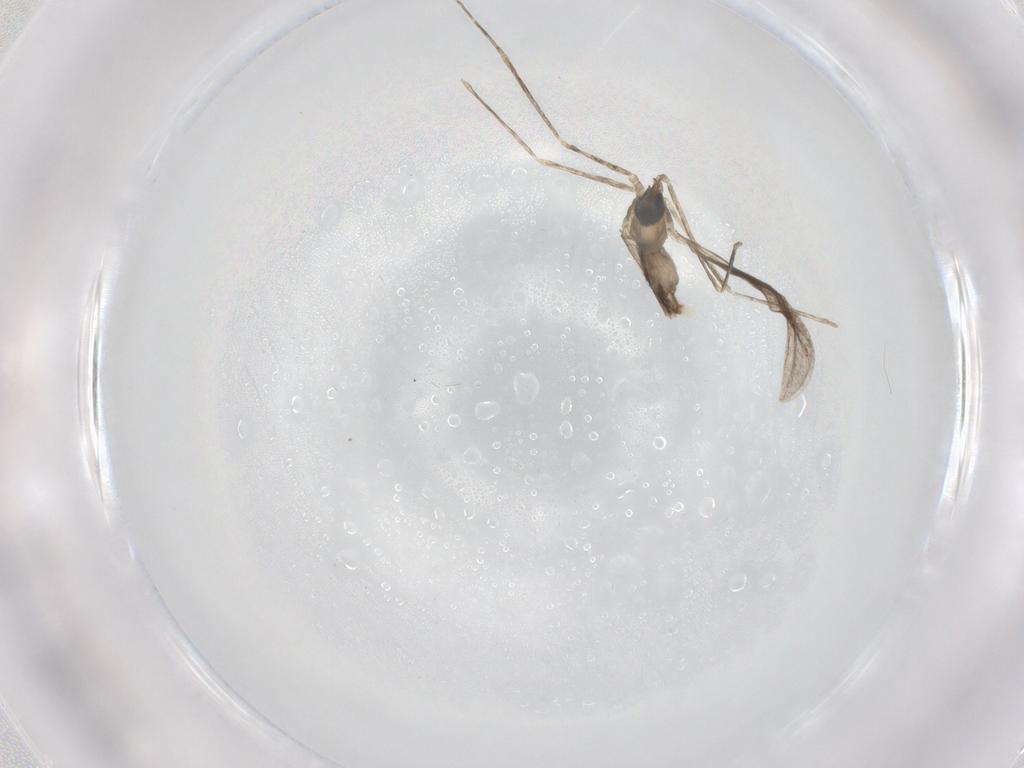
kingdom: Animalia
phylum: Arthropoda
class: Insecta
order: Diptera
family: Cecidomyiidae
